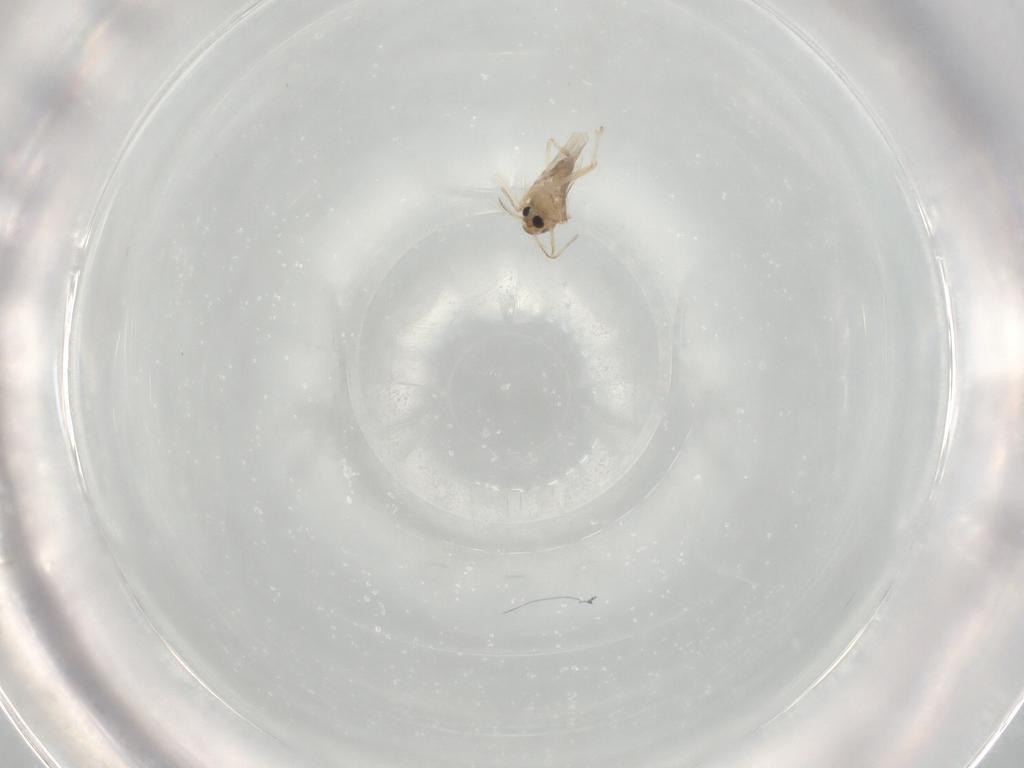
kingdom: Animalia
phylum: Arthropoda
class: Insecta
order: Diptera
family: Chironomidae
